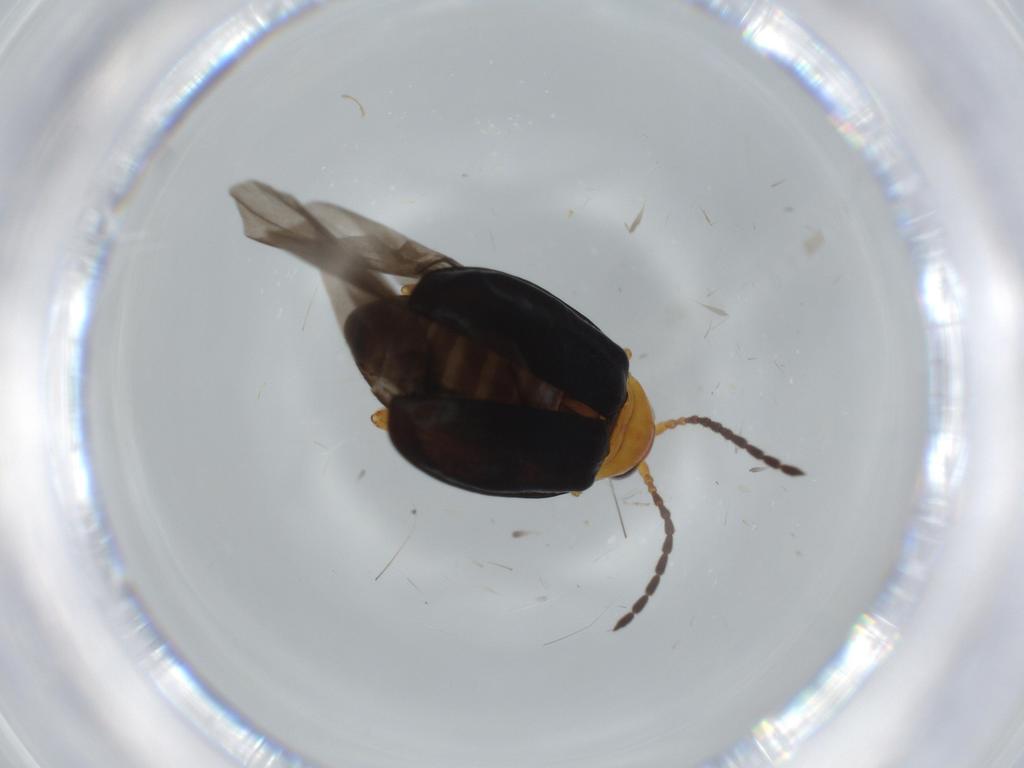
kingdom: Animalia
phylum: Arthropoda
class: Insecta
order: Coleoptera
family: Chrysomelidae
